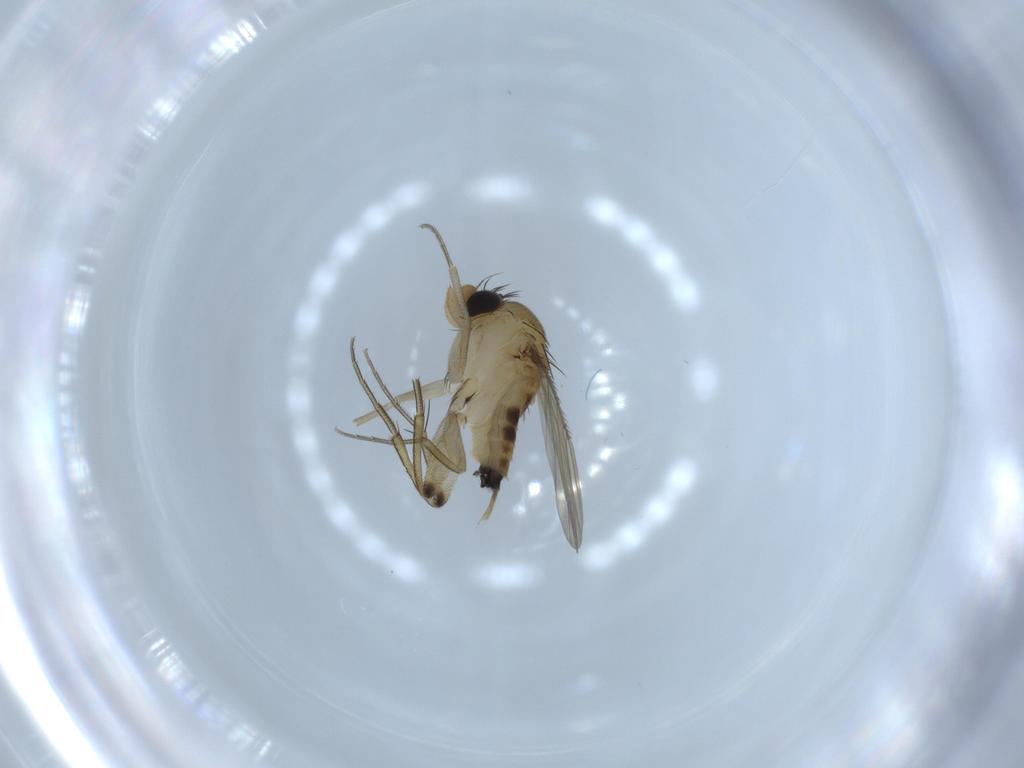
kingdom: Animalia
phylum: Arthropoda
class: Insecta
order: Diptera
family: Phoridae
